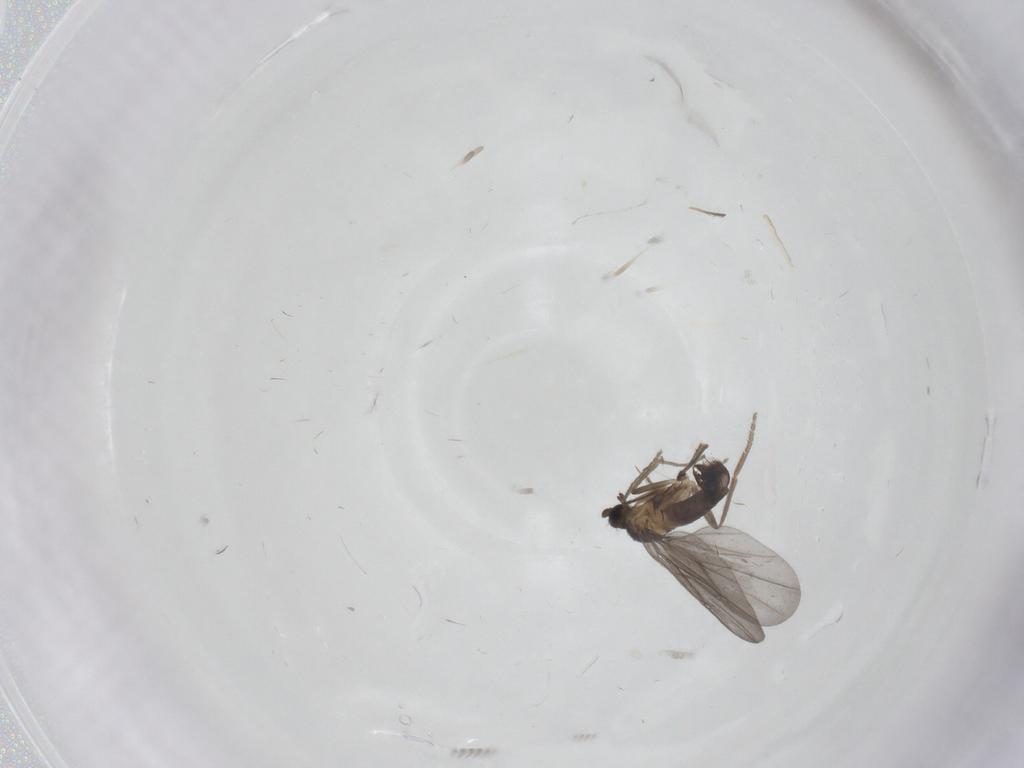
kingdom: Animalia
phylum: Arthropoda
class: Insecta
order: Diptera
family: Phoridae
